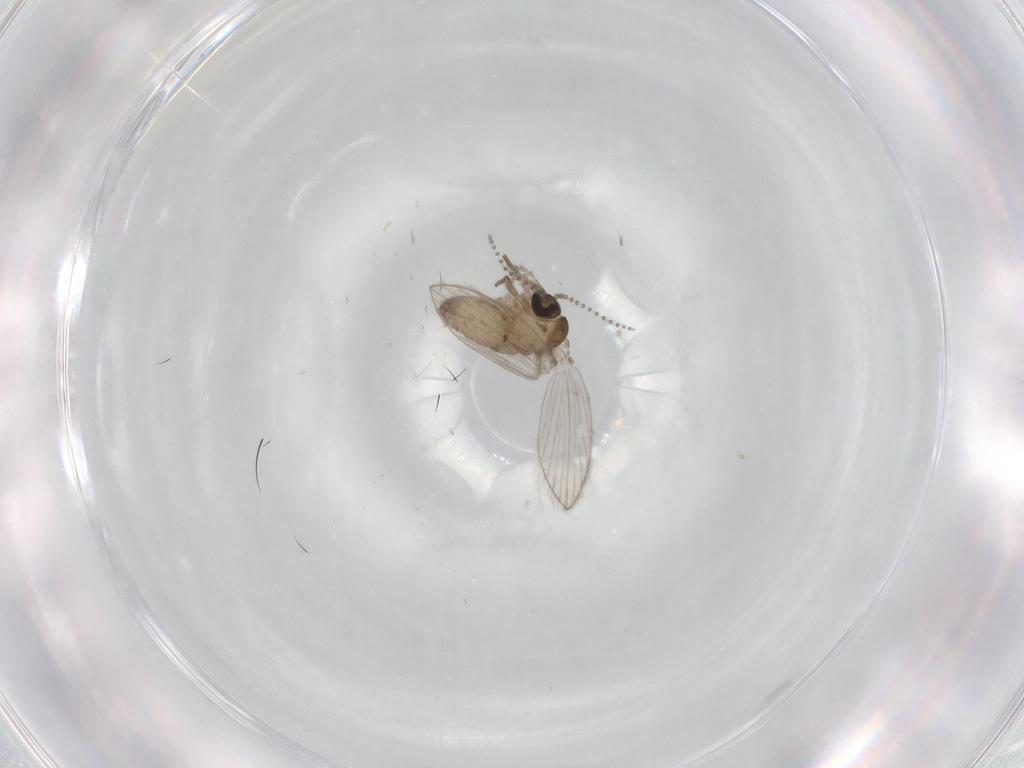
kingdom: Animalia
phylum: Arthropoda
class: Insecta
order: Diptera
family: Psychodidae
